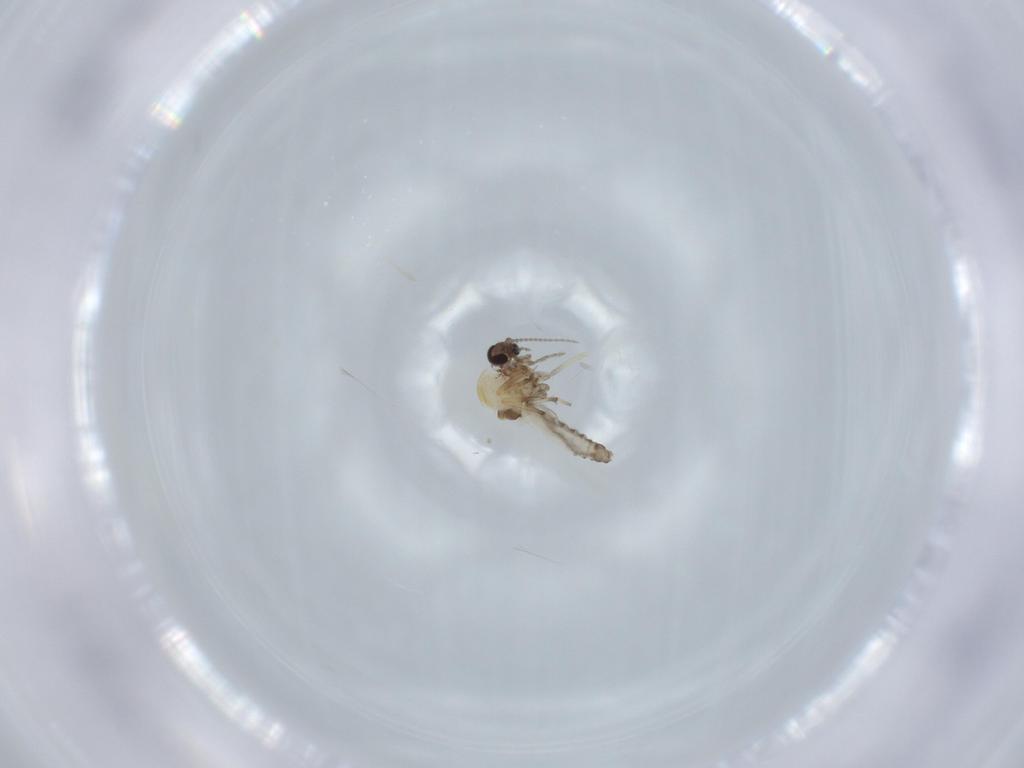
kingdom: Animalia
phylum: Arthropoda
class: Insecta
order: Diptera
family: Ceratopogonidae
